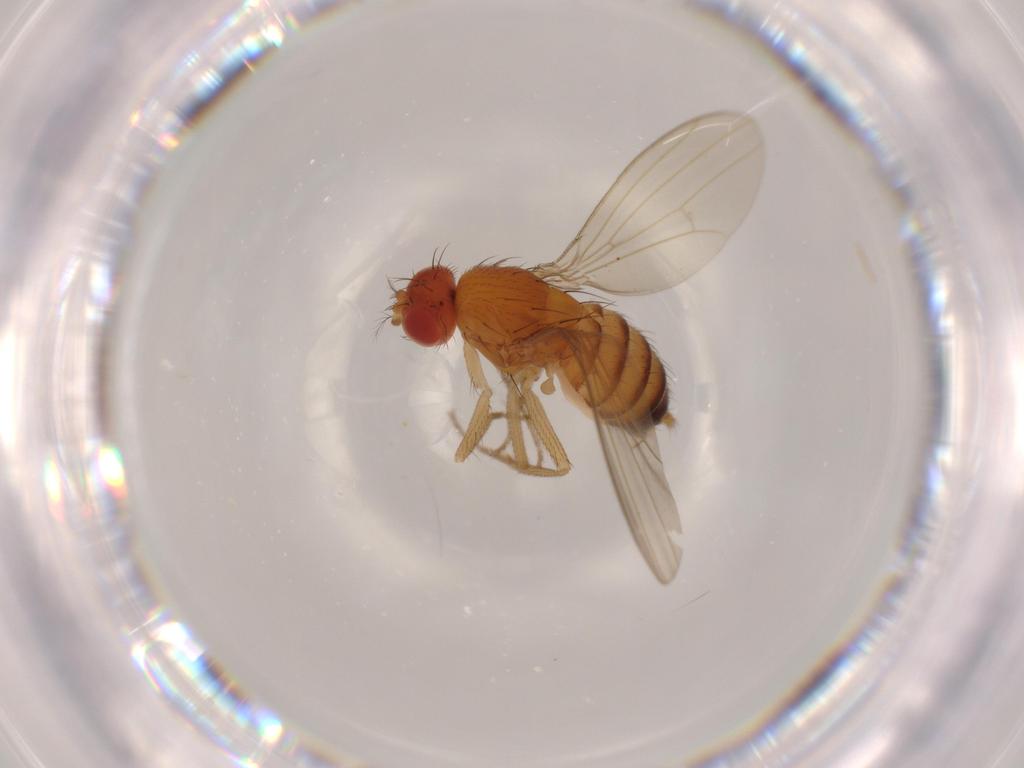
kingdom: Animalia
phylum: Arthropoda
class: Insecta
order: Diptera
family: Drosophilidae
